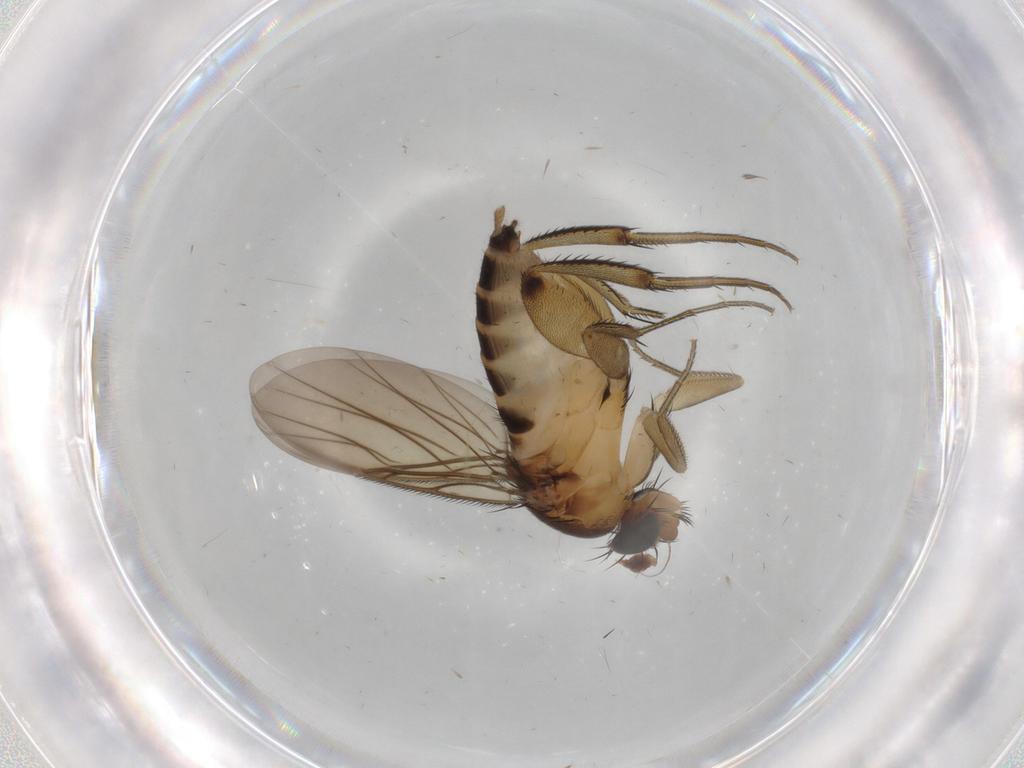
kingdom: Animalia
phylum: Arthropoda
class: Insecta
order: Diptera
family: Limoniidae
